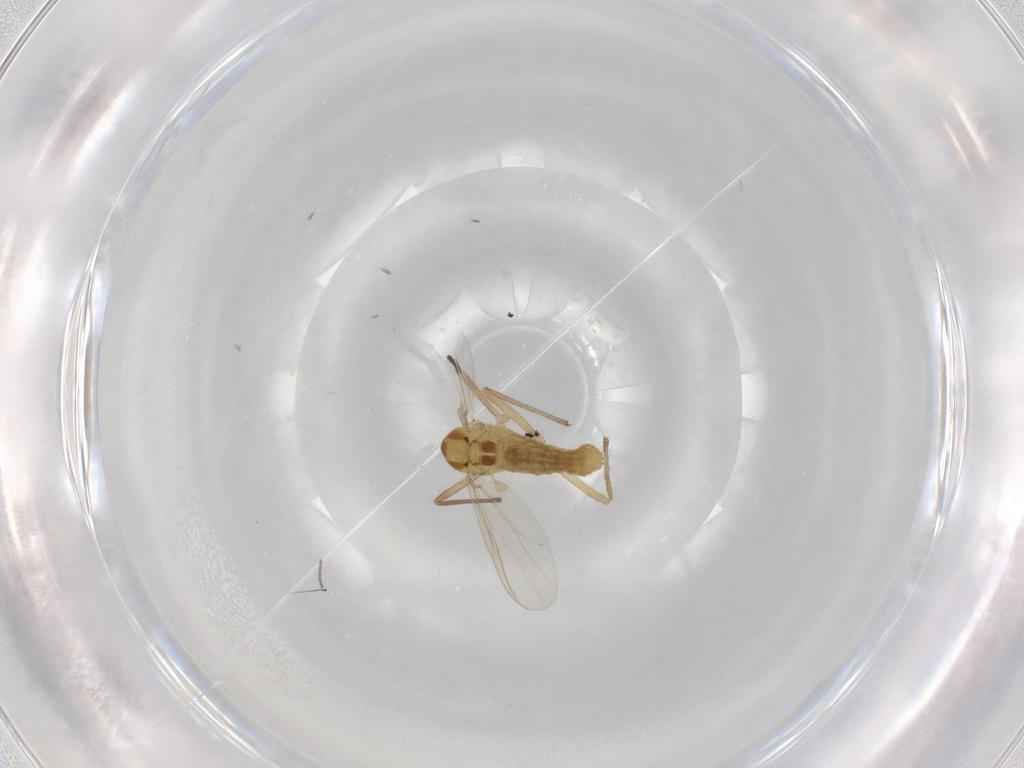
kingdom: Animalia
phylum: Arthropoda
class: Insecta
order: Diptera
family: Chironomidae
